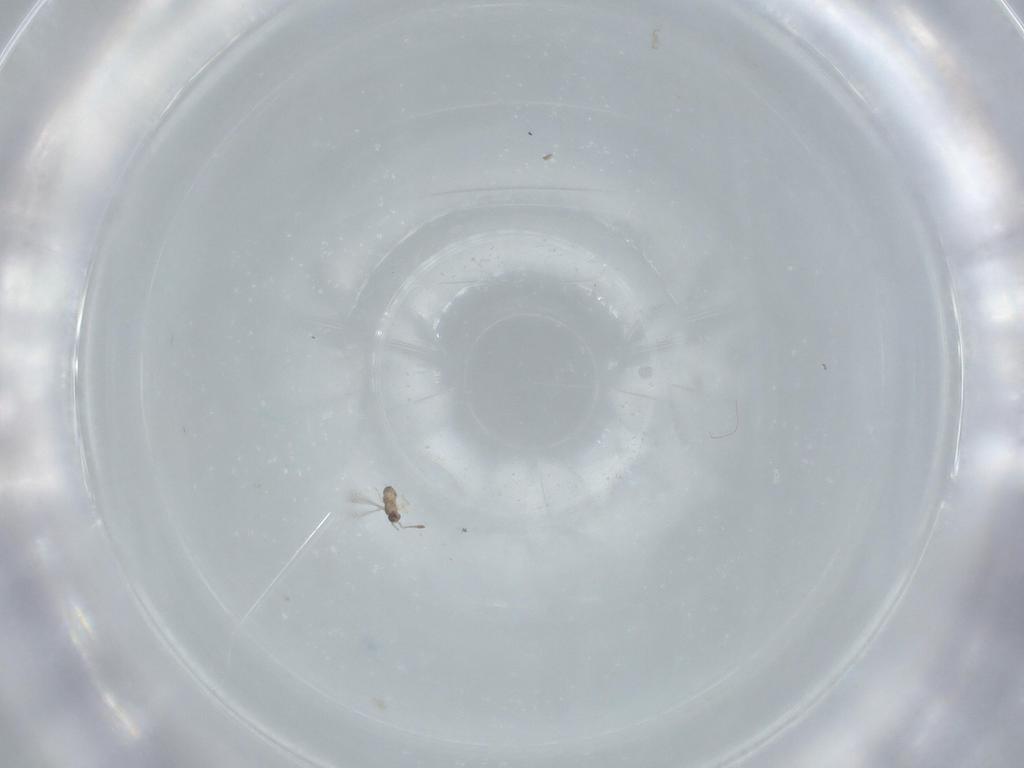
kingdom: Animalia
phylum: Arthropoda
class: Insecta
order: Hymenoptera
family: Mymaridae
